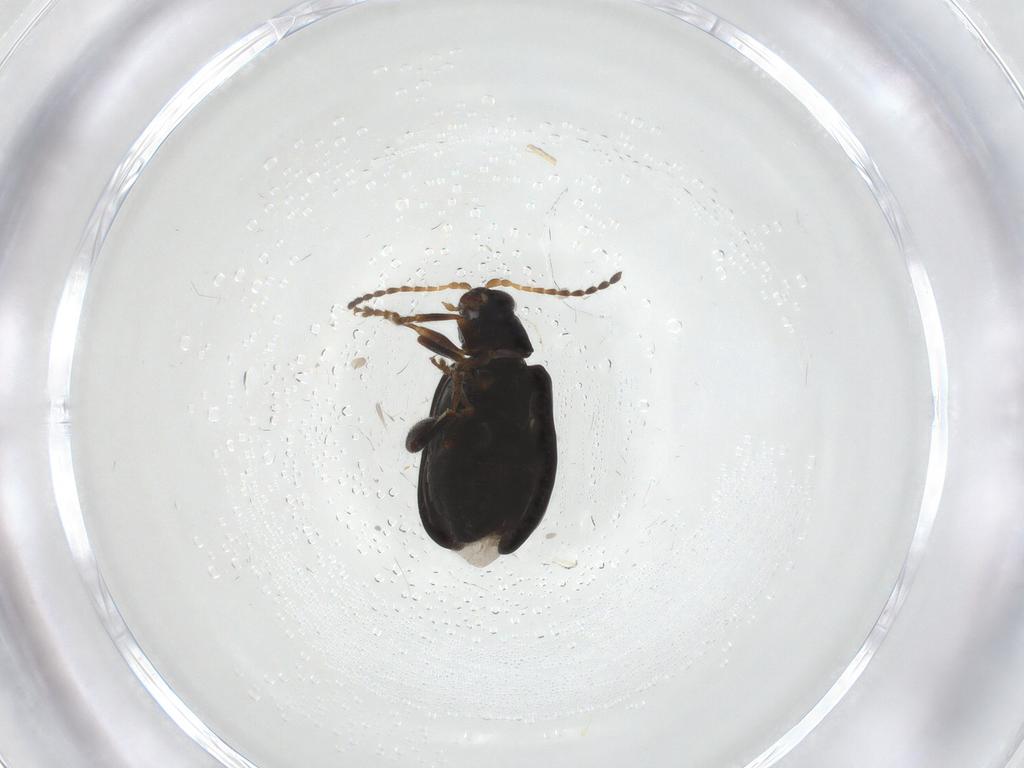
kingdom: Animalia
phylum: Arthropoda
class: Insecta
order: Coleoptera
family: Chrysomelidae
